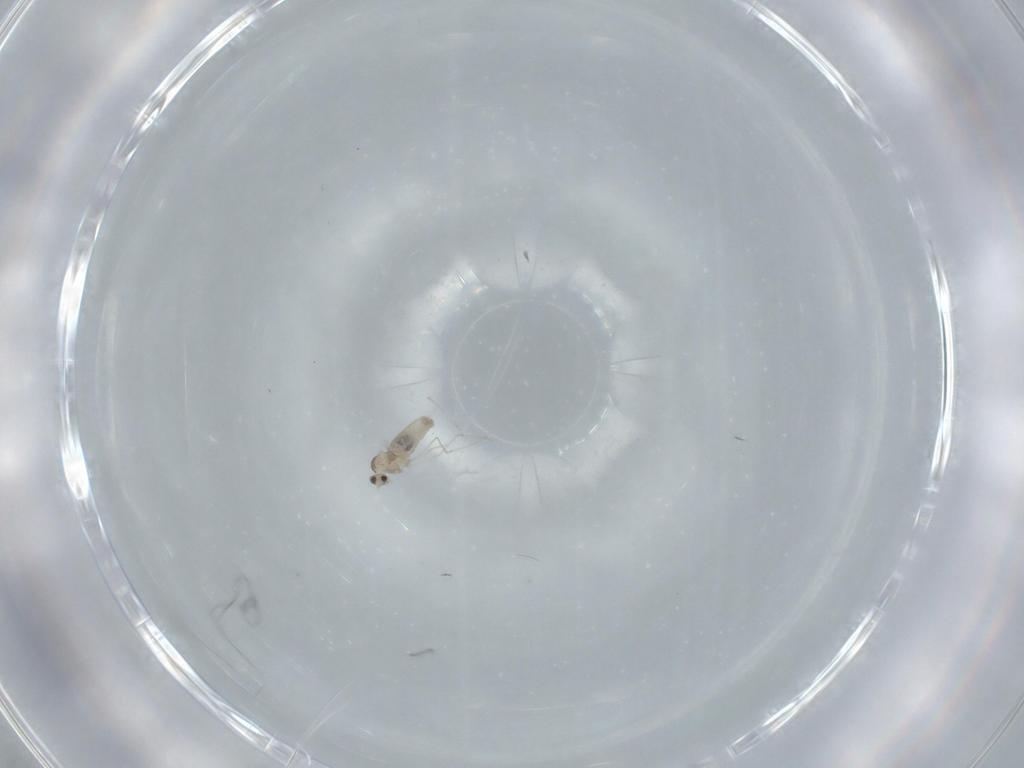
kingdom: Animalia
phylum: Arthropoda
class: Insecta
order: Diptera
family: Cecidomyiidae
